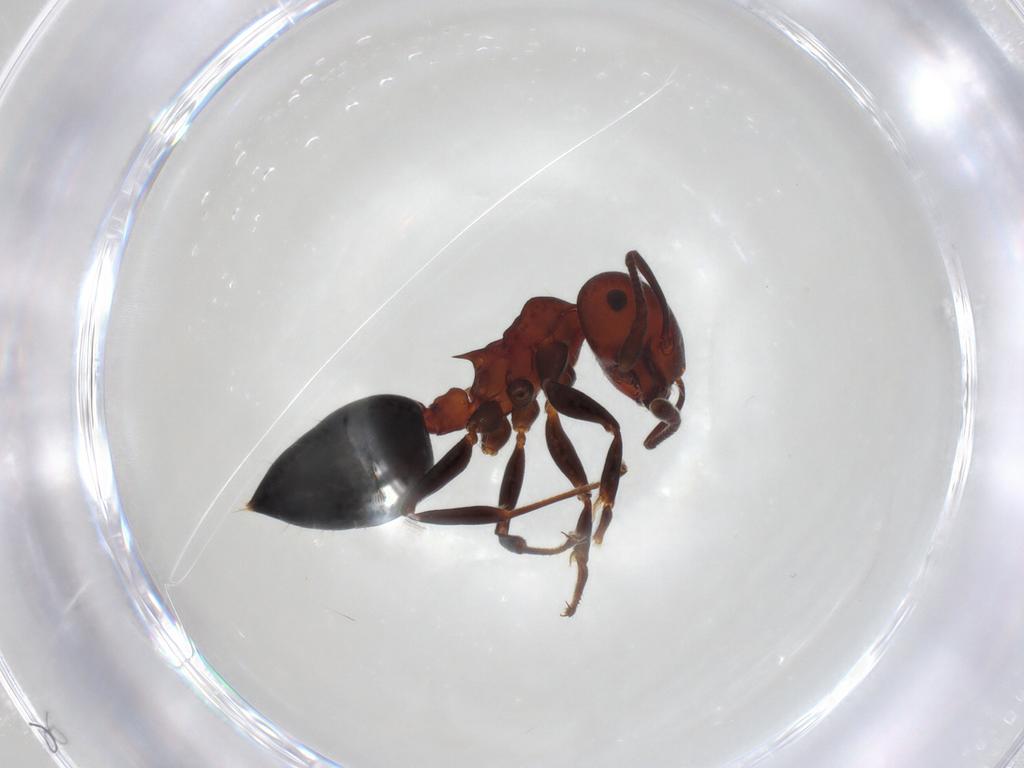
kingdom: Animalia
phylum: Arthropoda
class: Insecta
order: Hymenoptera
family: Formicidae
